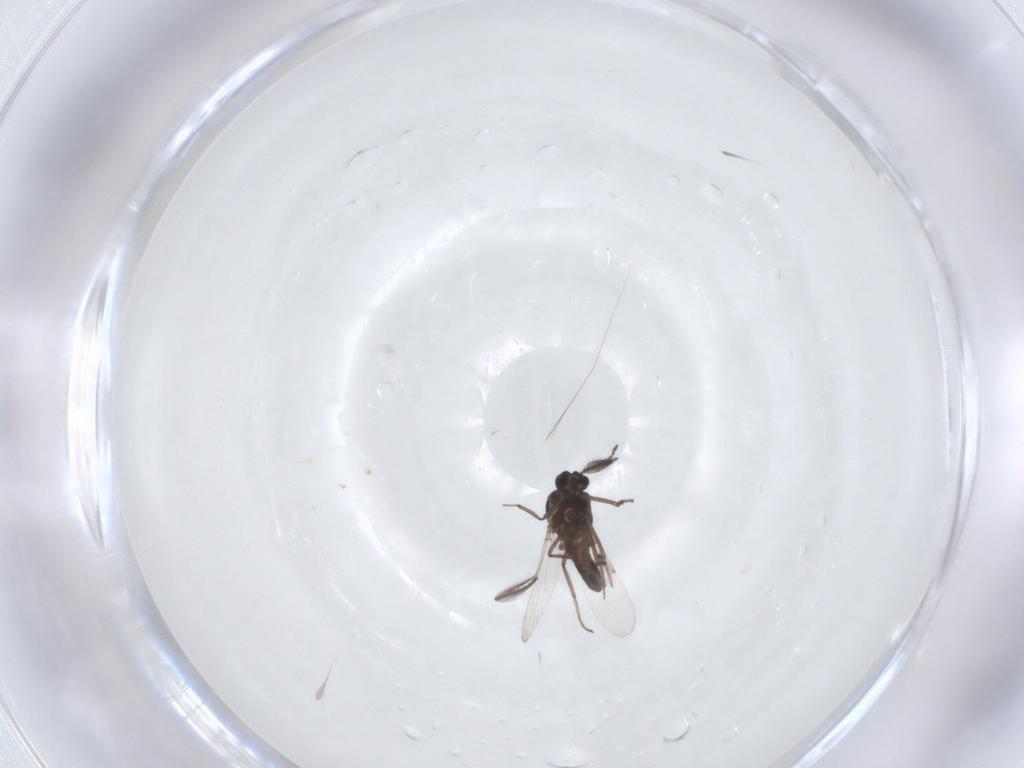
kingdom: Animalia
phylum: Arthropoda
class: Insecta
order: Diptera
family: Ceratopogonidae
